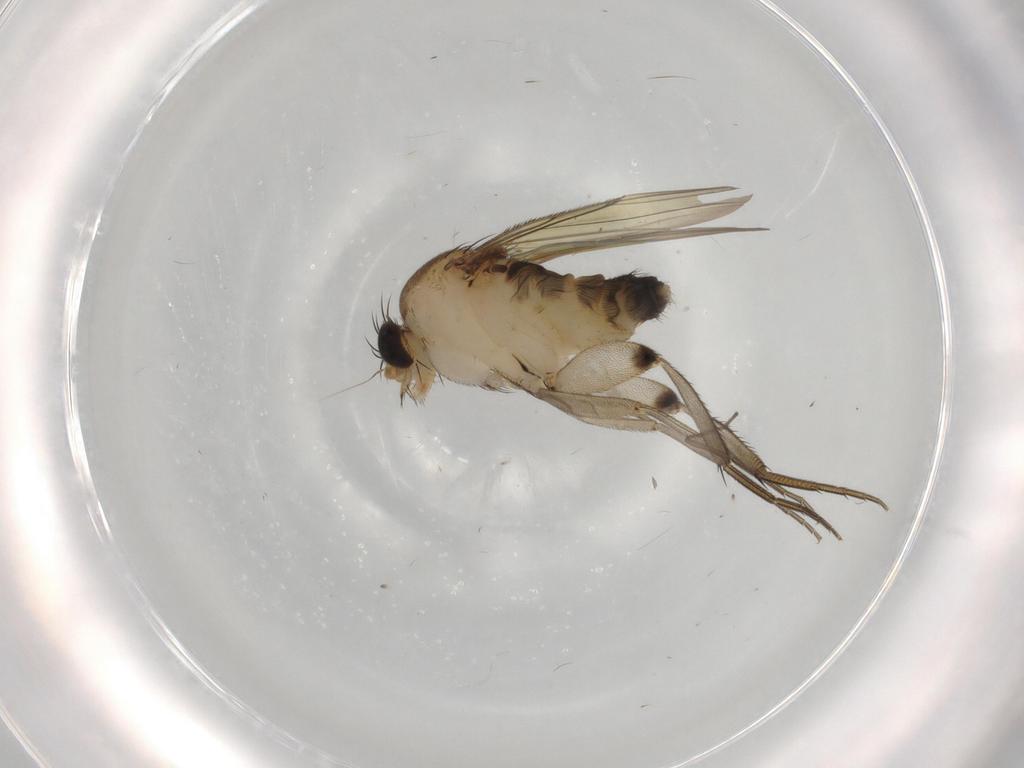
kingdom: Animalia
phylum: Arthropoda
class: Insecta
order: Diptera
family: Phoridae
